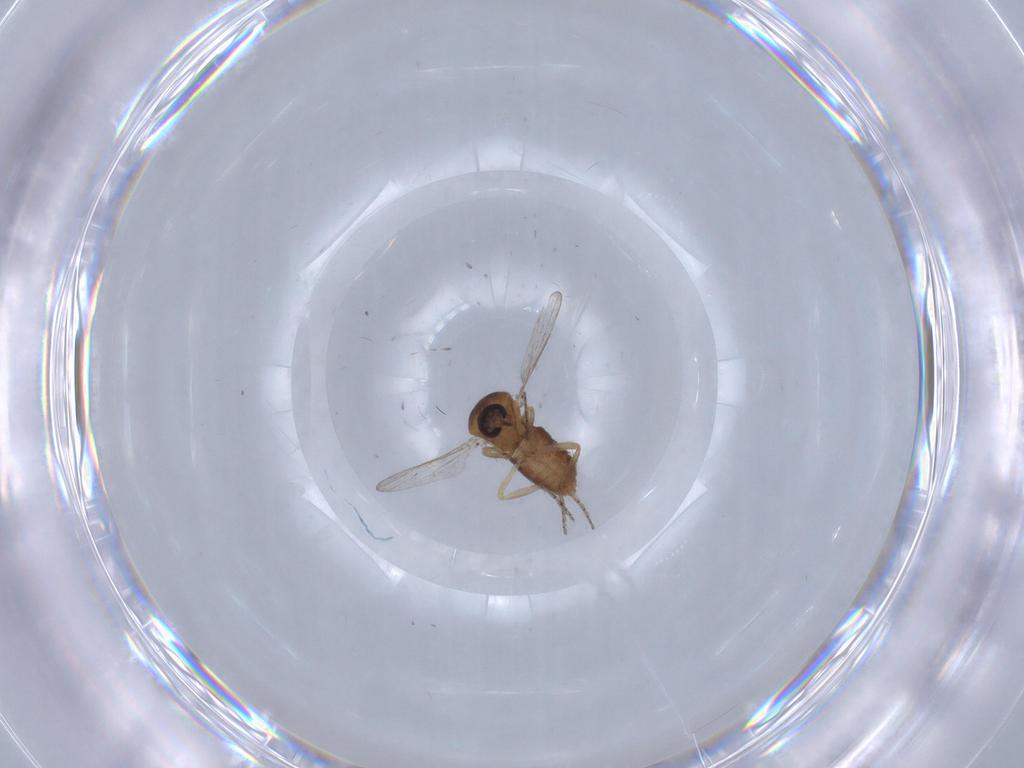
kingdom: Animalia
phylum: Arthropoda
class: Insecta
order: Diptera
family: Ceratopogonidae
